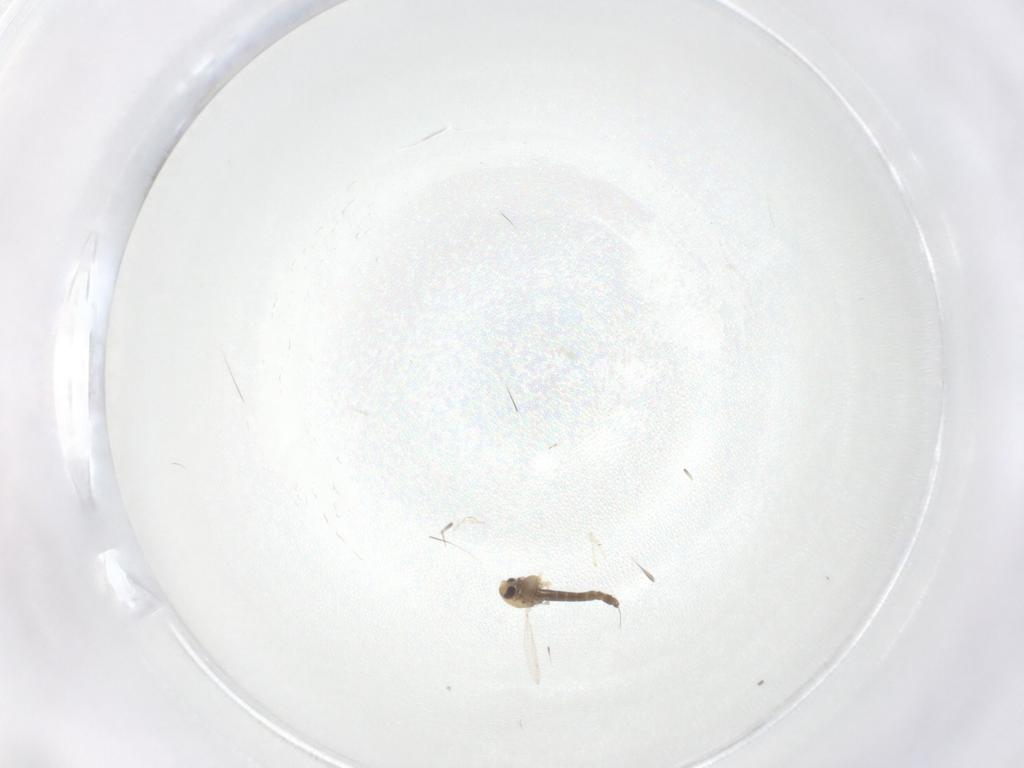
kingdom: Animalia
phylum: Arthropoda
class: Insecta
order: Diptera
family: Chironomidae
